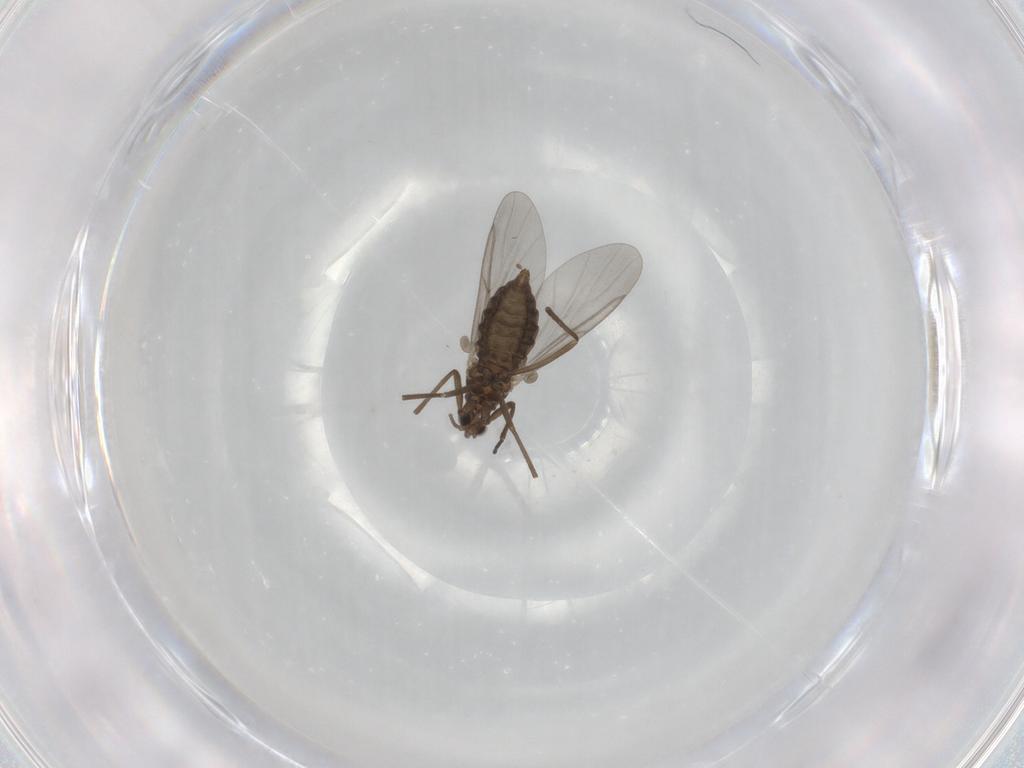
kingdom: Animalia
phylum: Arthropoda
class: Insecta
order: Diptera
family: Cecidomyiidae
